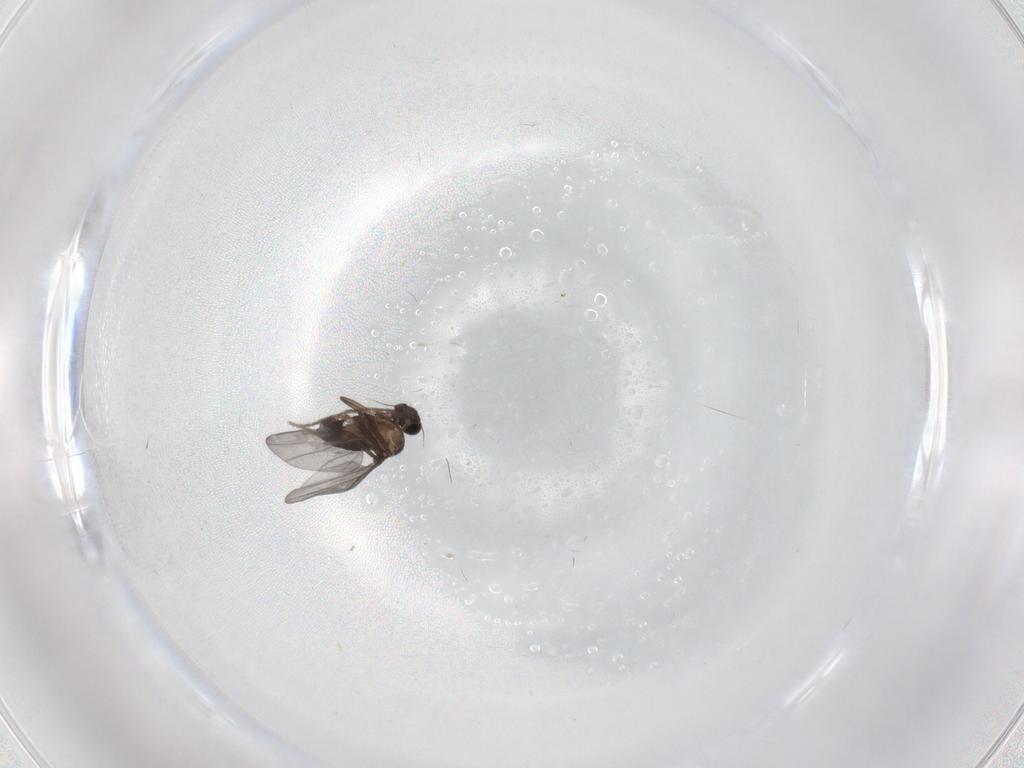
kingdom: Animalia
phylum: Arthropoda
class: Insecta
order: Diptera
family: Phoridae
